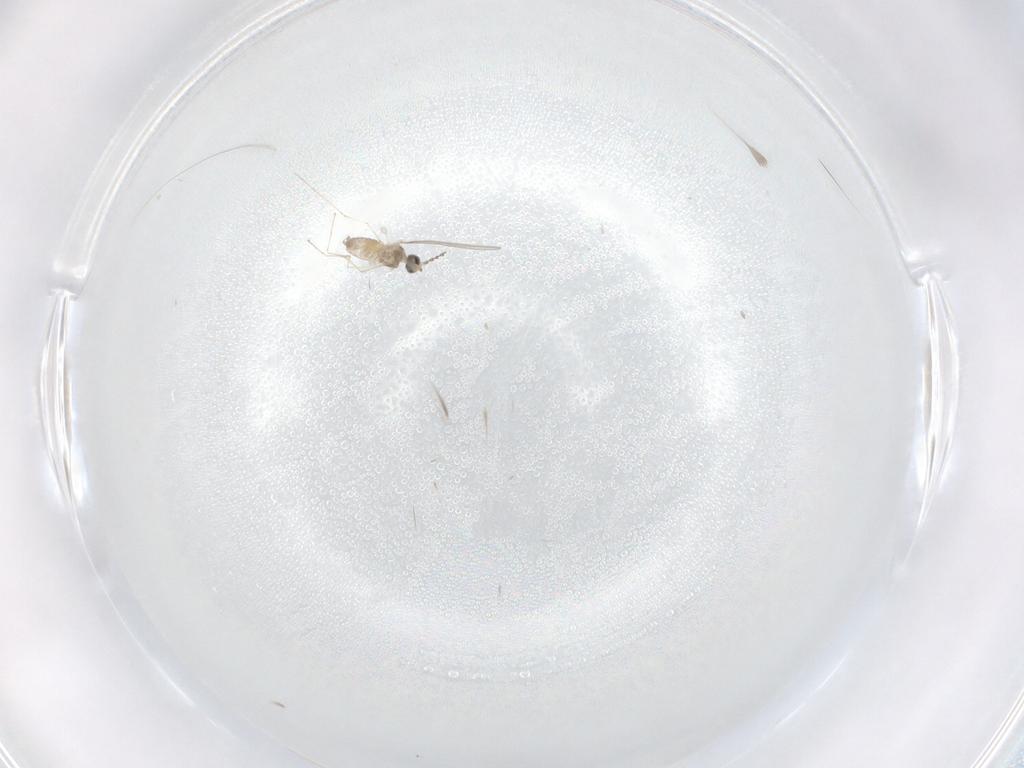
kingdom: Animalia
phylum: Arthropoda
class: Insecta
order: Diptera
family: Cecidomyiidae
